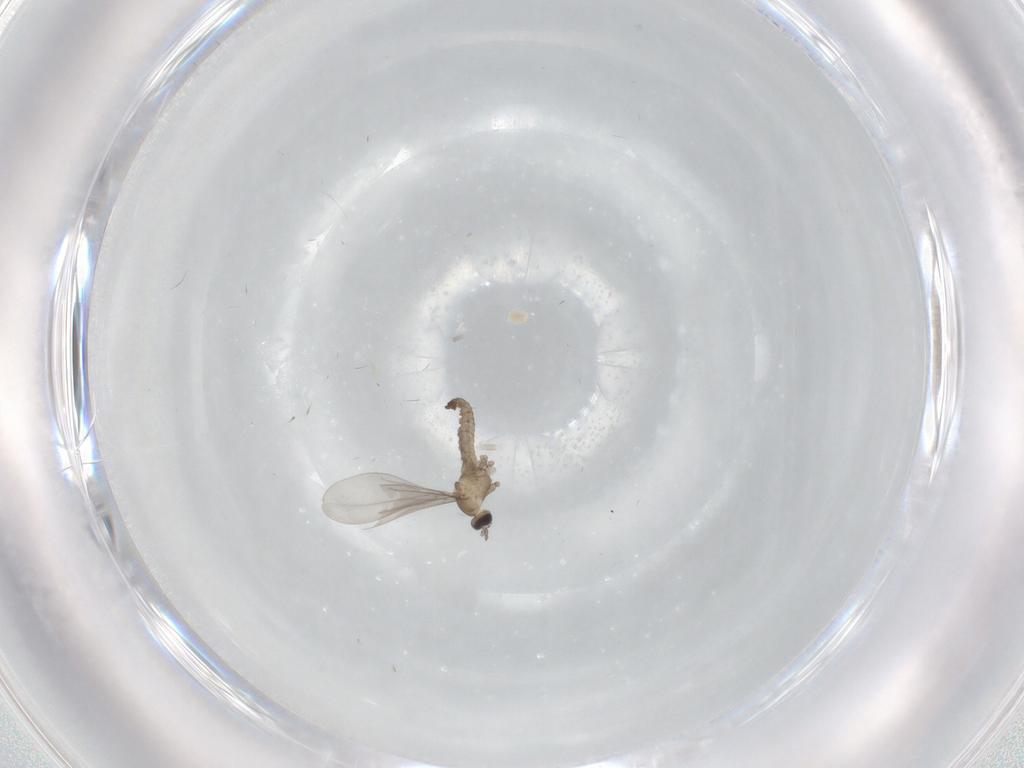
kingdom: Animalia
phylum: Arthropoda
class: Insecta
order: Diptera
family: Cecidomyiidae
